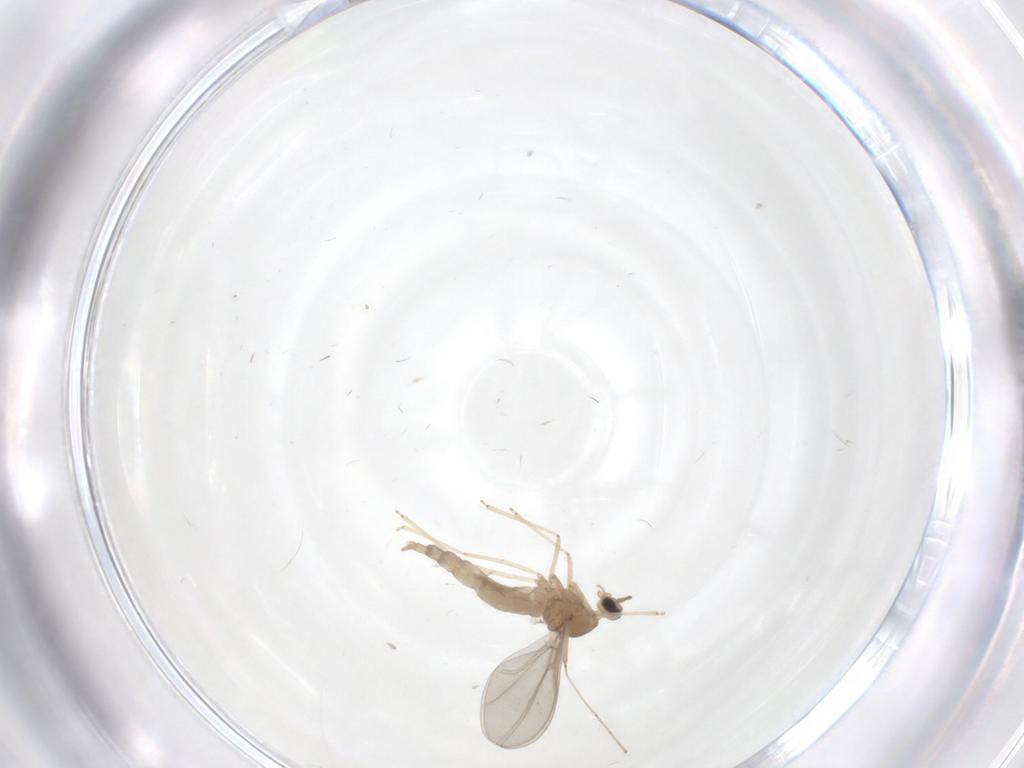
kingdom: Animalia
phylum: Arthropoda
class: Insecta
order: Diptera
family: Cecidomyiidae
